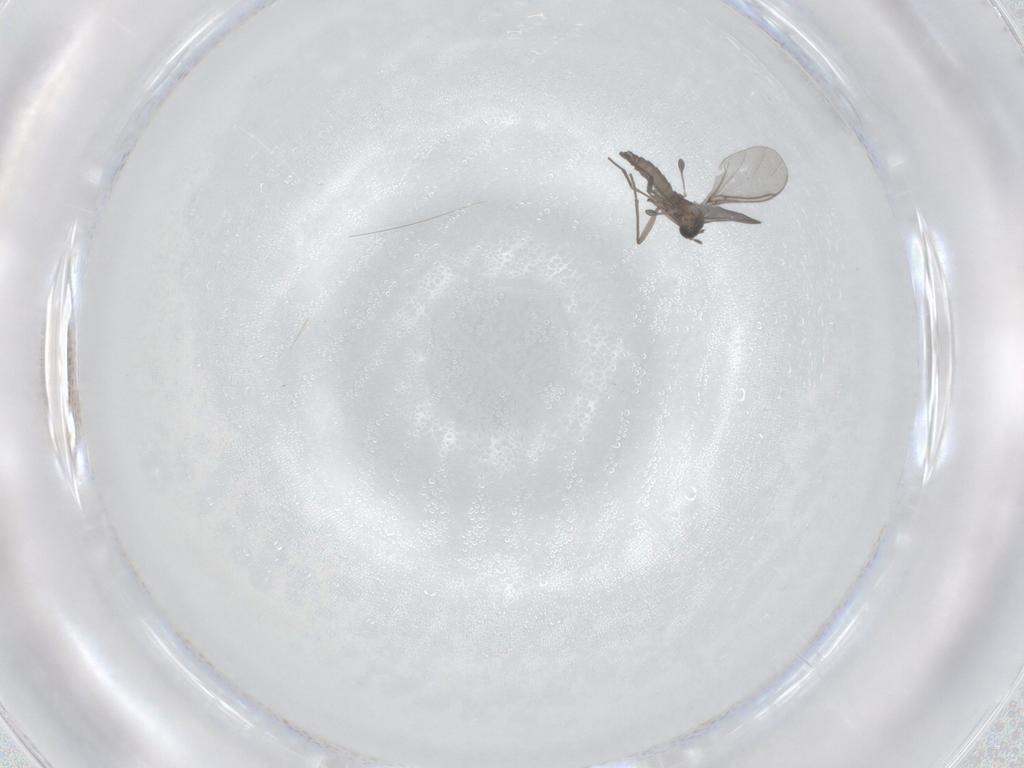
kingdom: Animalia
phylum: Arthropoda
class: Insecta
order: Diptera
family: Sciaridae
